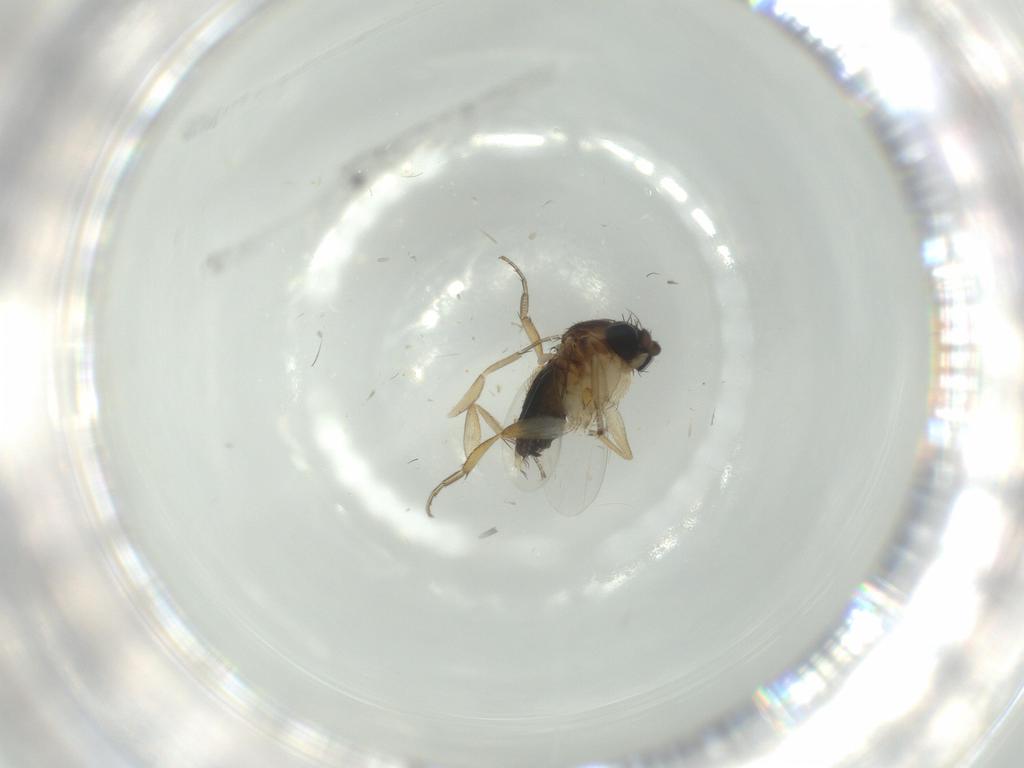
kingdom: Animalia
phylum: Arthropoda
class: Insecta
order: Diptera
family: Phoridae
